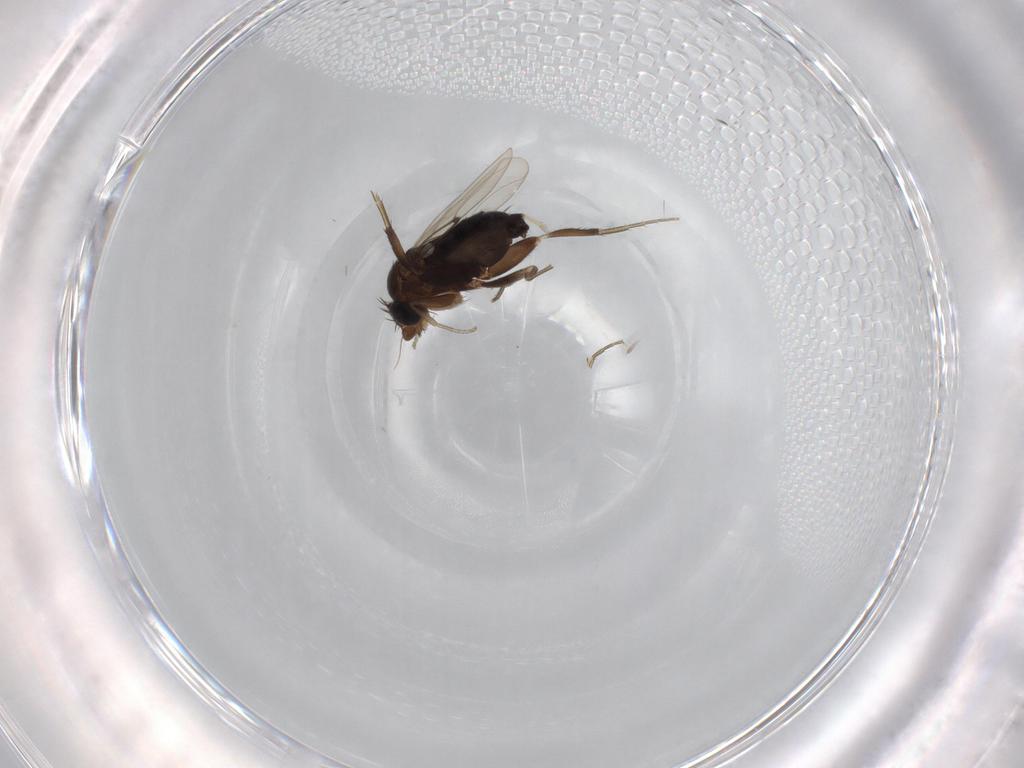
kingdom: Animalia
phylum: Arthropoda
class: Insecta
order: Diptera
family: Phoridae
